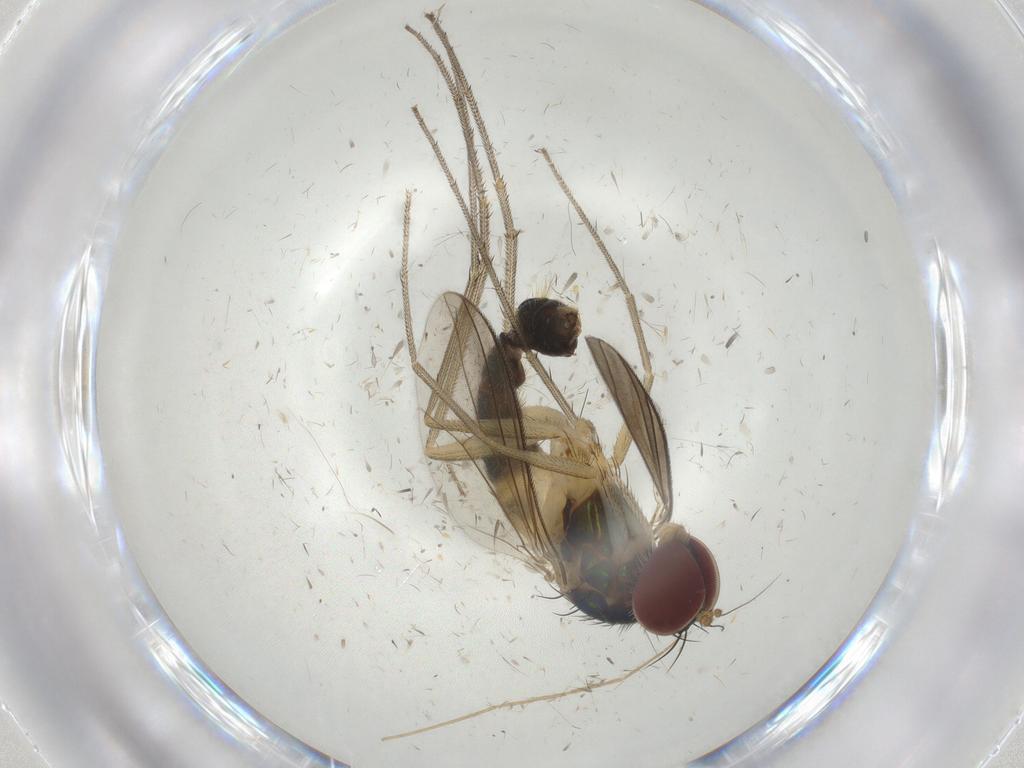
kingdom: Animalia
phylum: Arthropoda
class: Insecta
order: Diptera
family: Dolichopodidae
